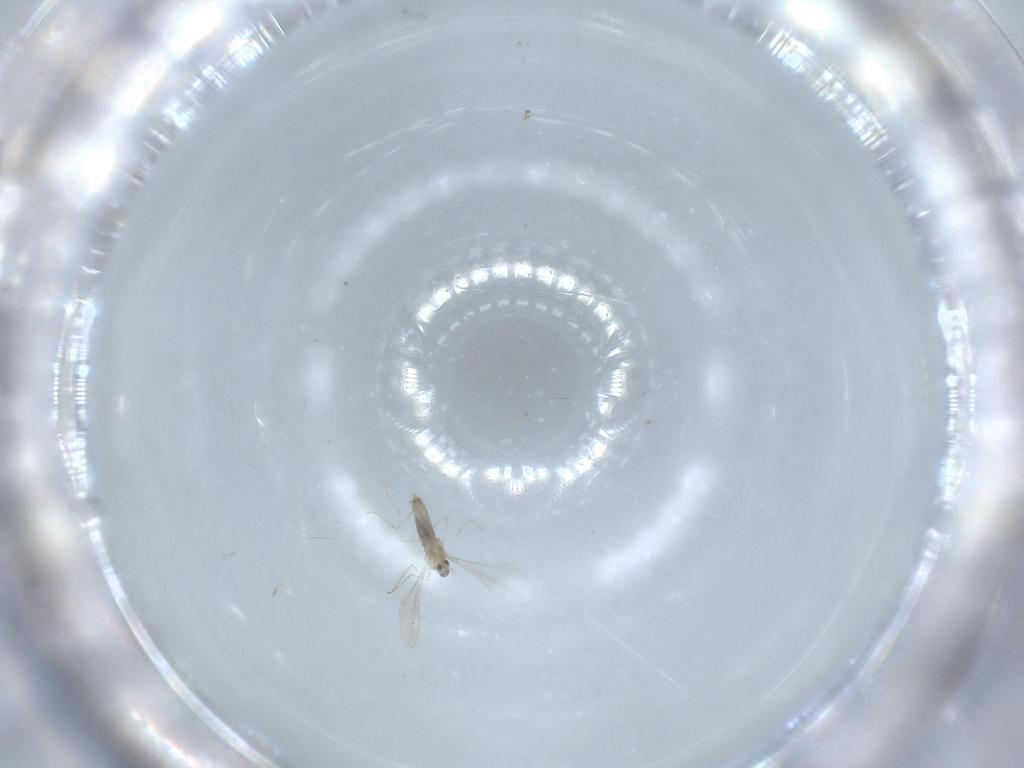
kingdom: Animalia
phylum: Arthropoda
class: Insecta
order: Diptera
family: Cecidomyiidae
